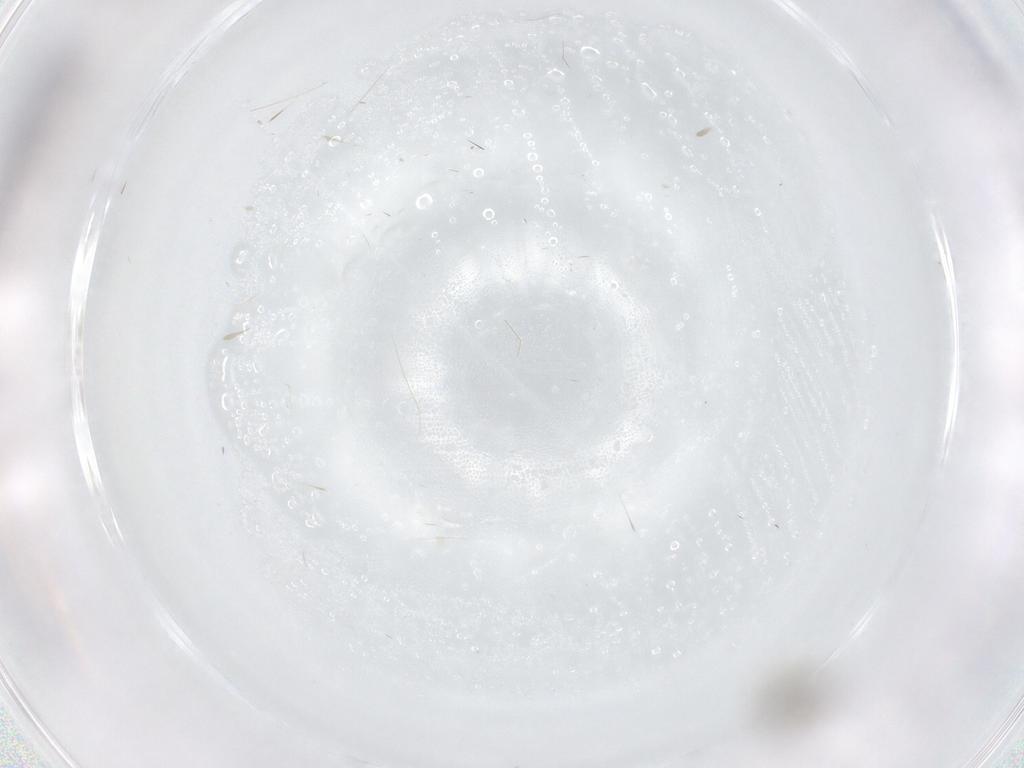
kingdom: Animalia
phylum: Arthropoda
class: Insecta
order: Diptera
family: Cecidomyiidae
